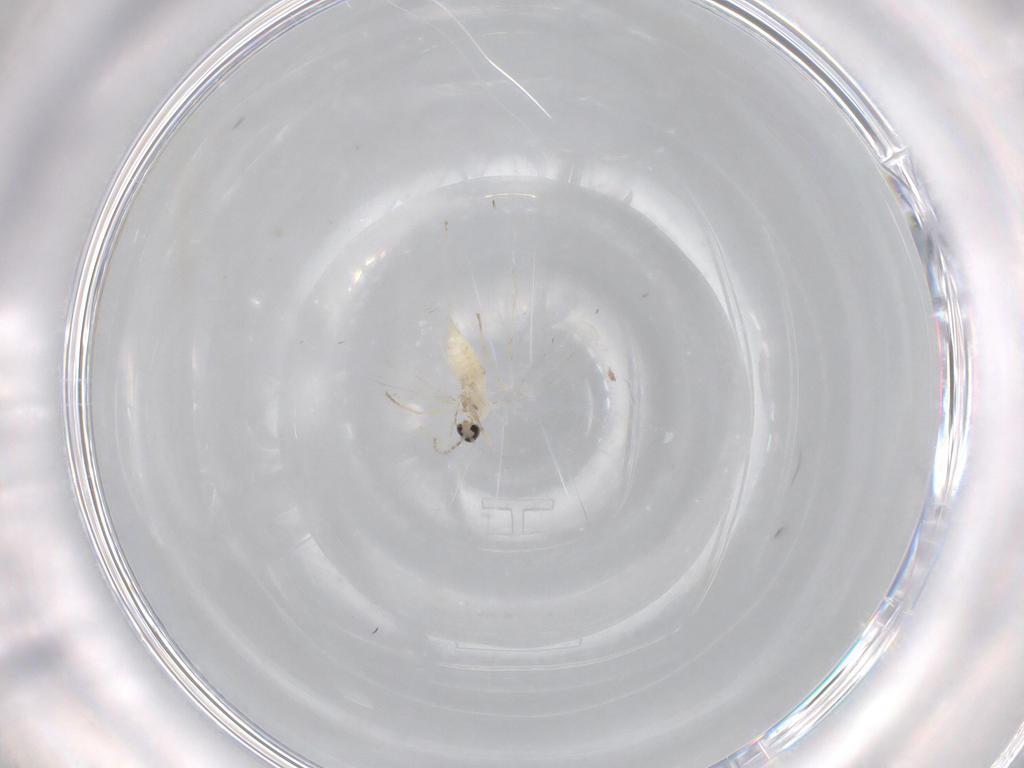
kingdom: Animalia
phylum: Arthropoda
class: Insecta
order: Diptera
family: Cecidomyiidae
